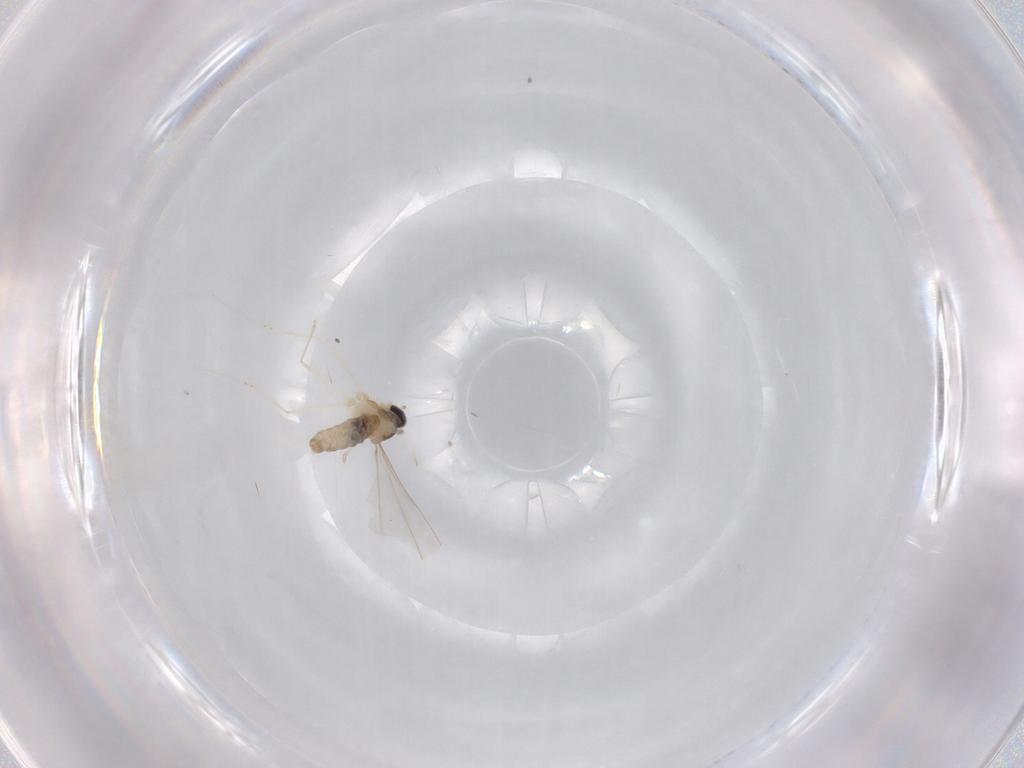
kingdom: Animalia
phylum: Arthropoda
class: Insecta
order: Diptera
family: Cecidomyiidae
